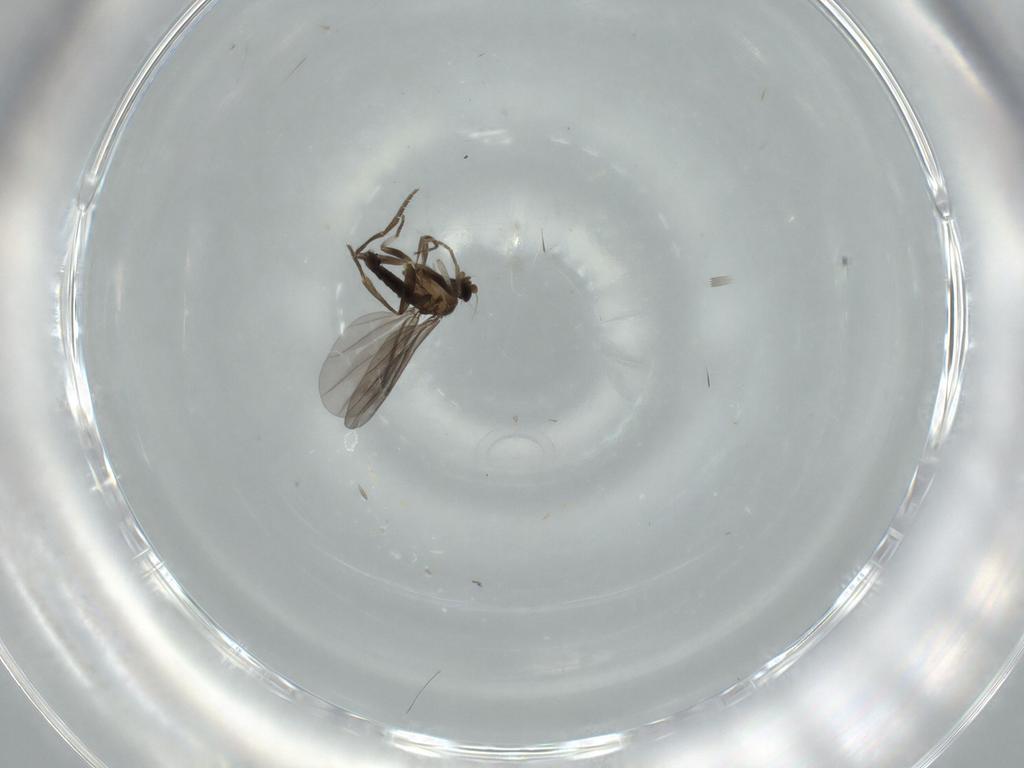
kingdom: Animalia
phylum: Arthropoda
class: Insecta
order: Diptera
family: Phoridae
